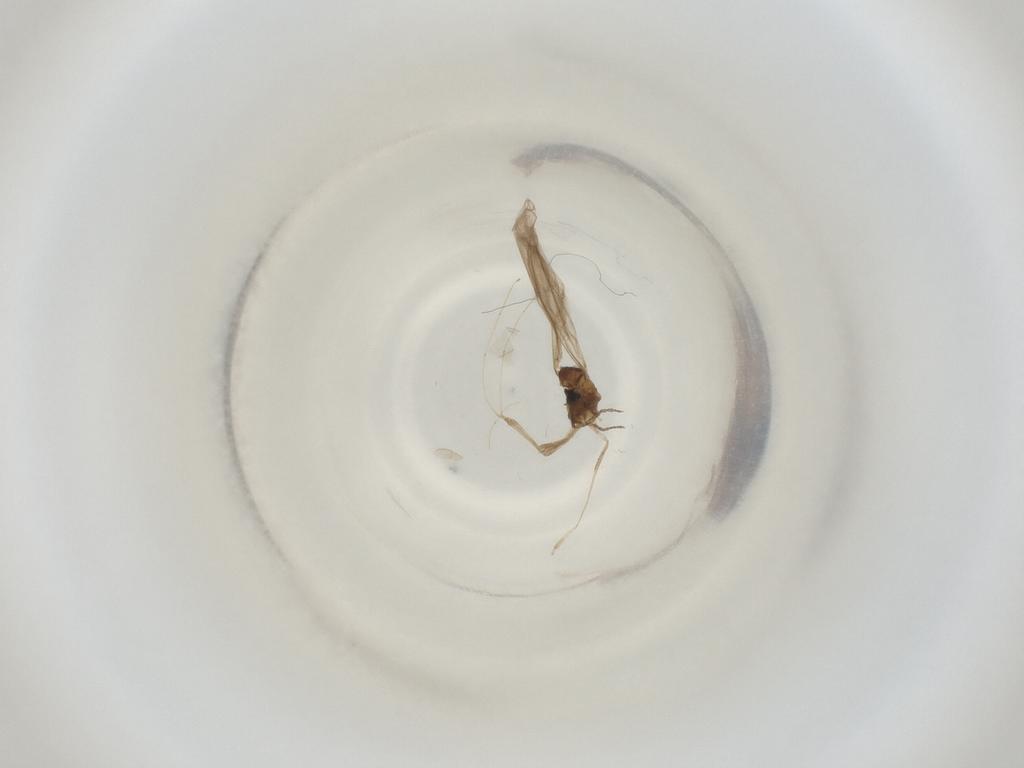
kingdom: Animalia
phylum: Arthropoda
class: Insecta
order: Diptera
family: Cecidomyiidae
